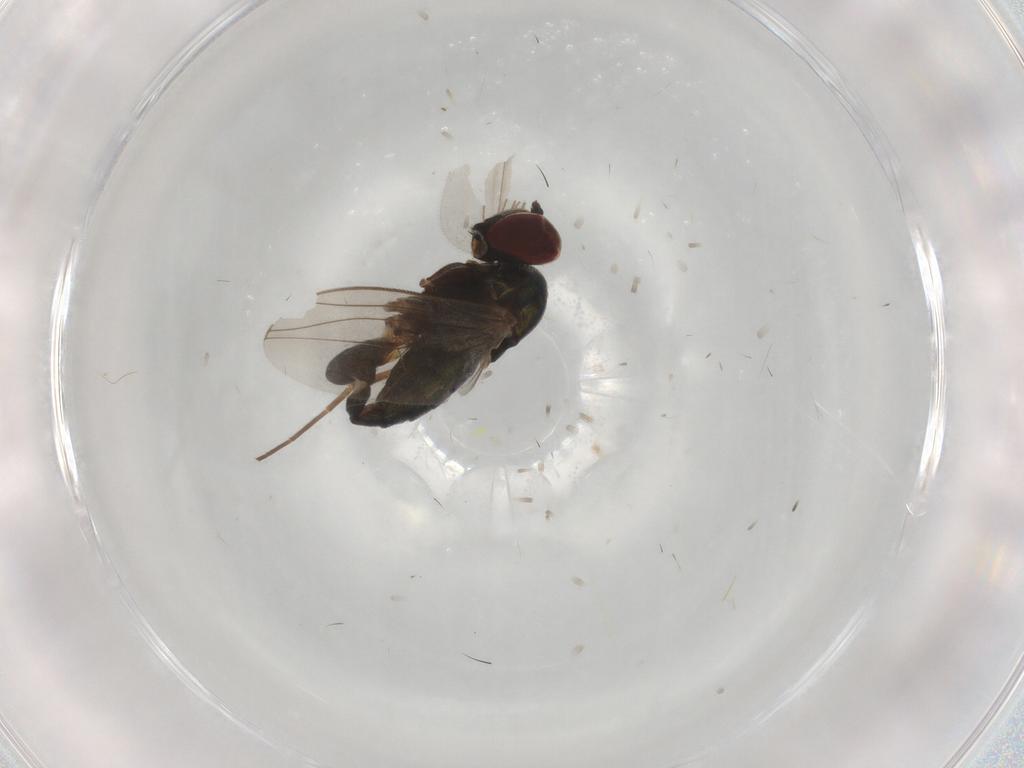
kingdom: Animalia
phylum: Arthropoda
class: Insecta
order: Diptera
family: Dolichopodidae
